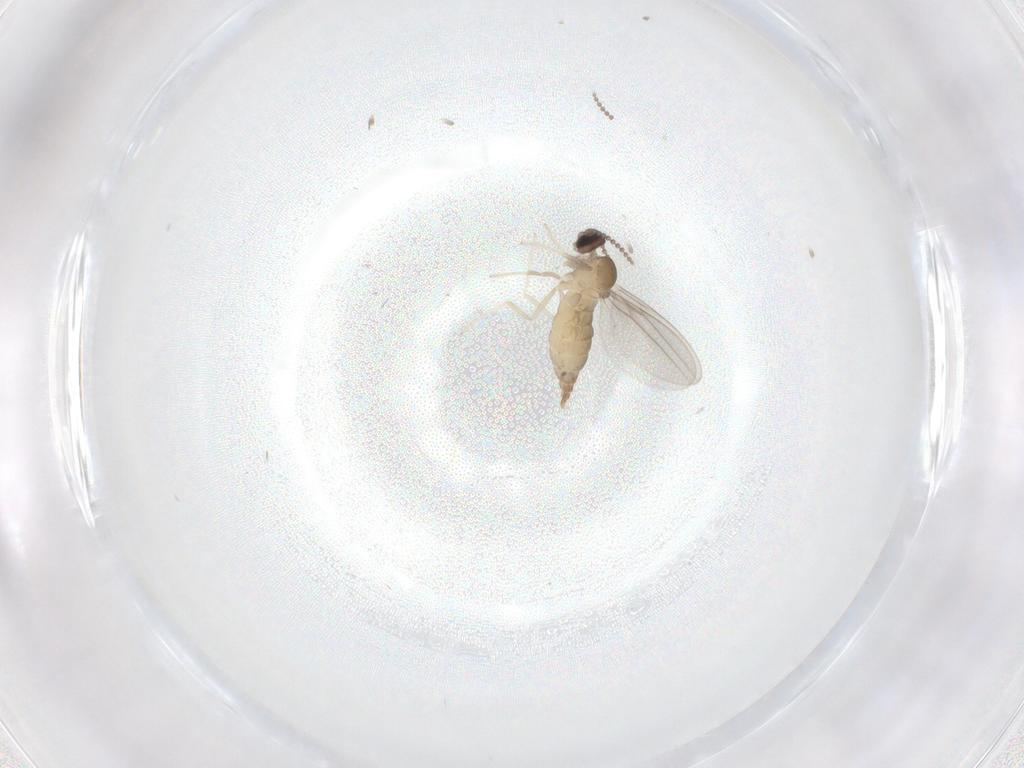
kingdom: Animalia
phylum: Arthropoda
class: Insecta
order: Diptera
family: Cecidomyiidae
